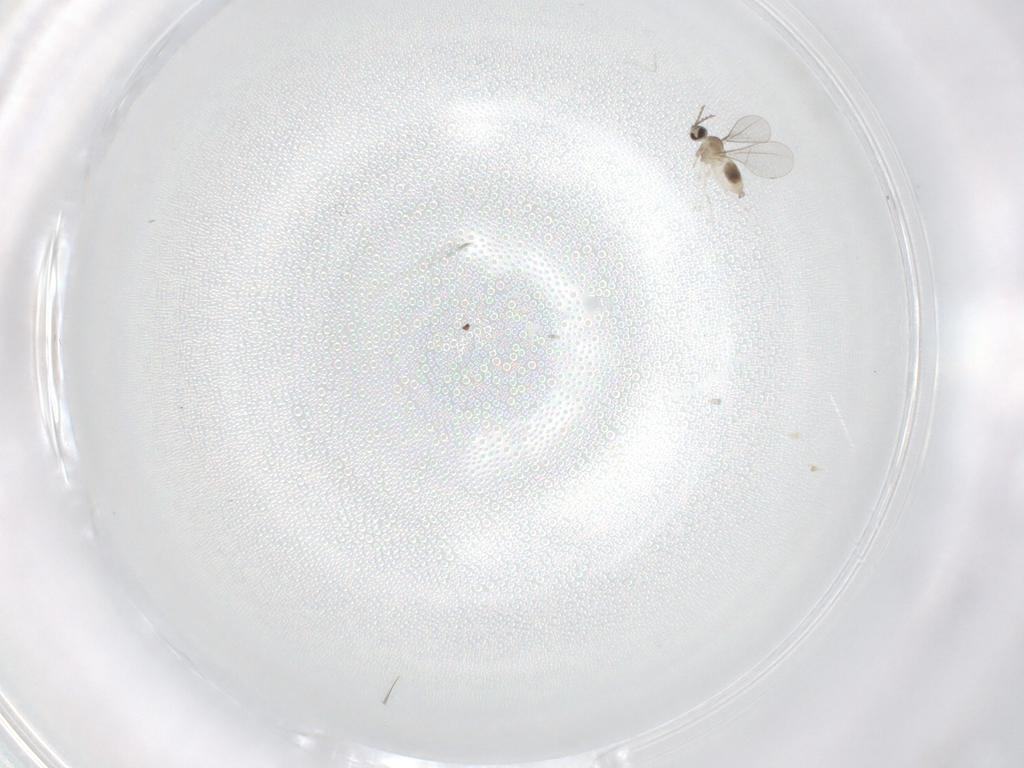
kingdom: Animalia
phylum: Arthropoda
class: Insecta
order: Diptera
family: Cecidomyiidae
